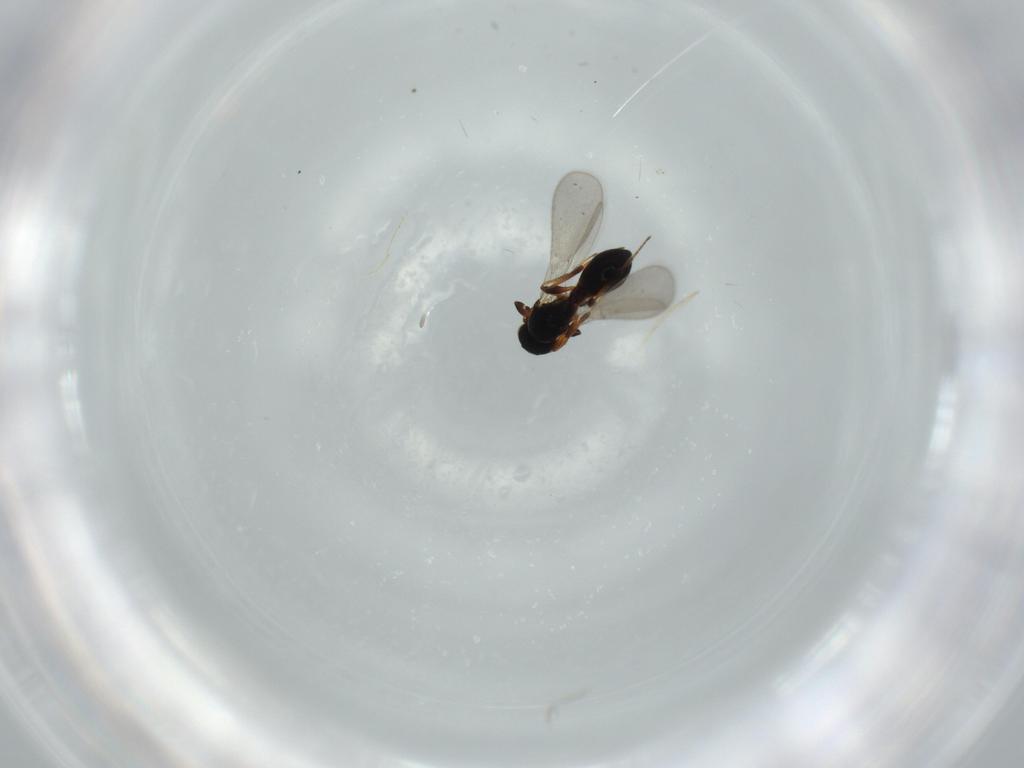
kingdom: Animalia
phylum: Arthropoda
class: Insecta
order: Hymenoptera
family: Platygastridae
